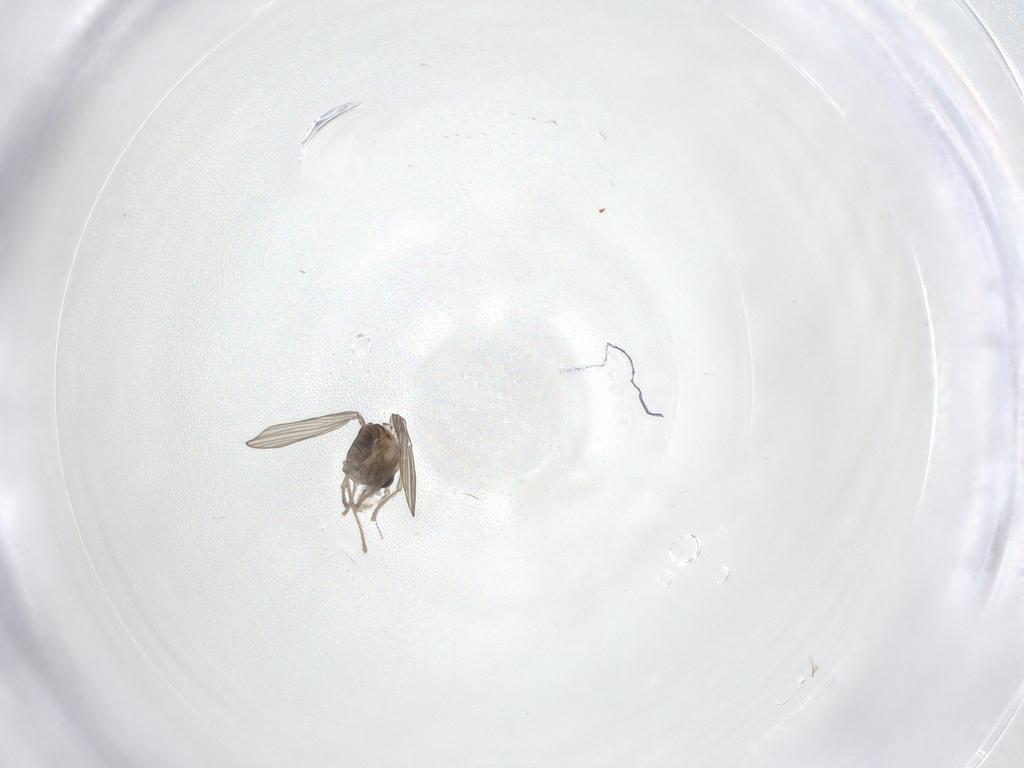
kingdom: Animalia
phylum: Arthropoda
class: Insecta
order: Diptera
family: Psychodidae
